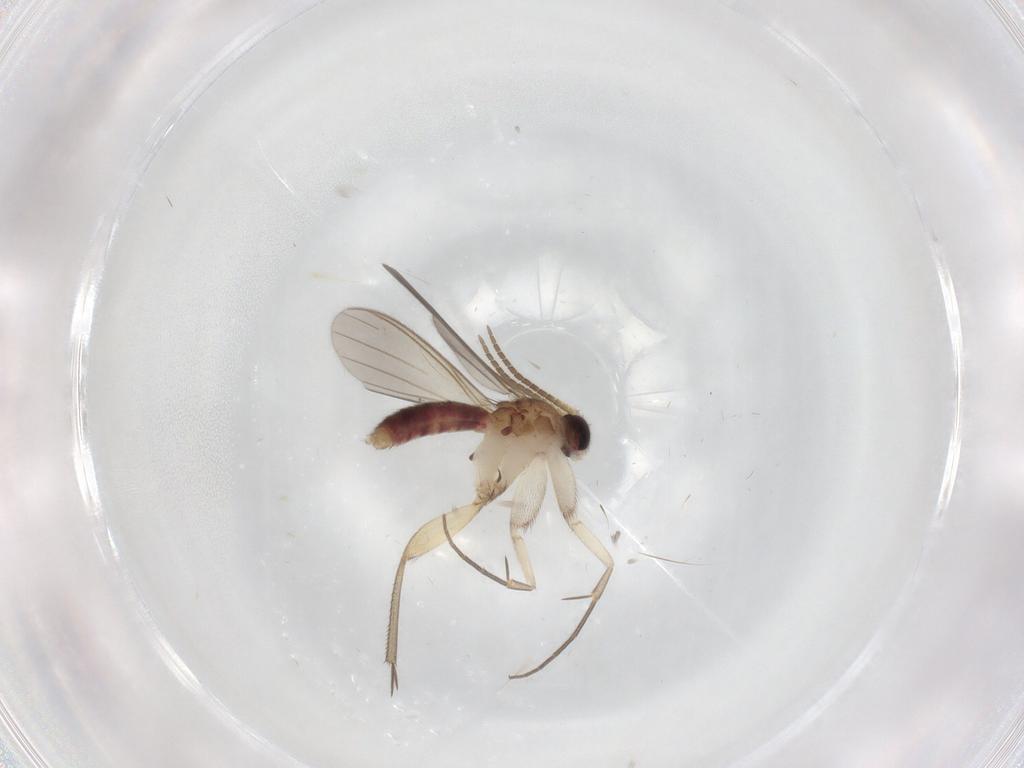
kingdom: Animalia
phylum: Arthropoda
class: Insecta
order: Diptera
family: Mycetophilidae
